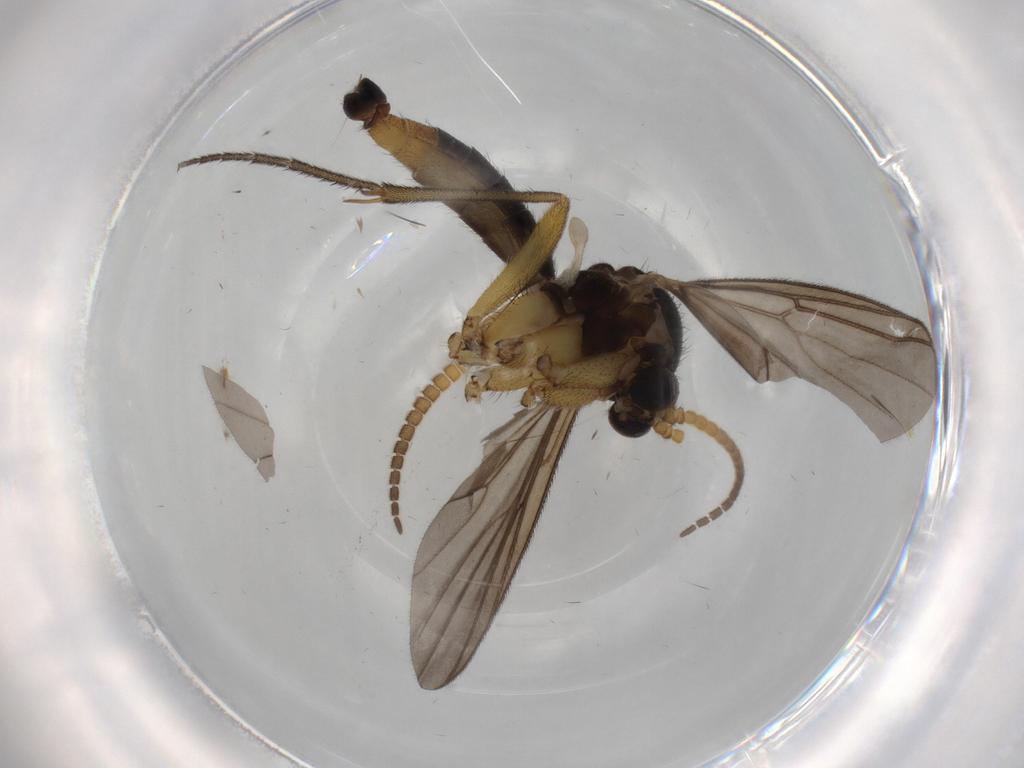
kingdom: Animalia
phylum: Arthropoda
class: Insecta
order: Diptera
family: Mycetophilidae
